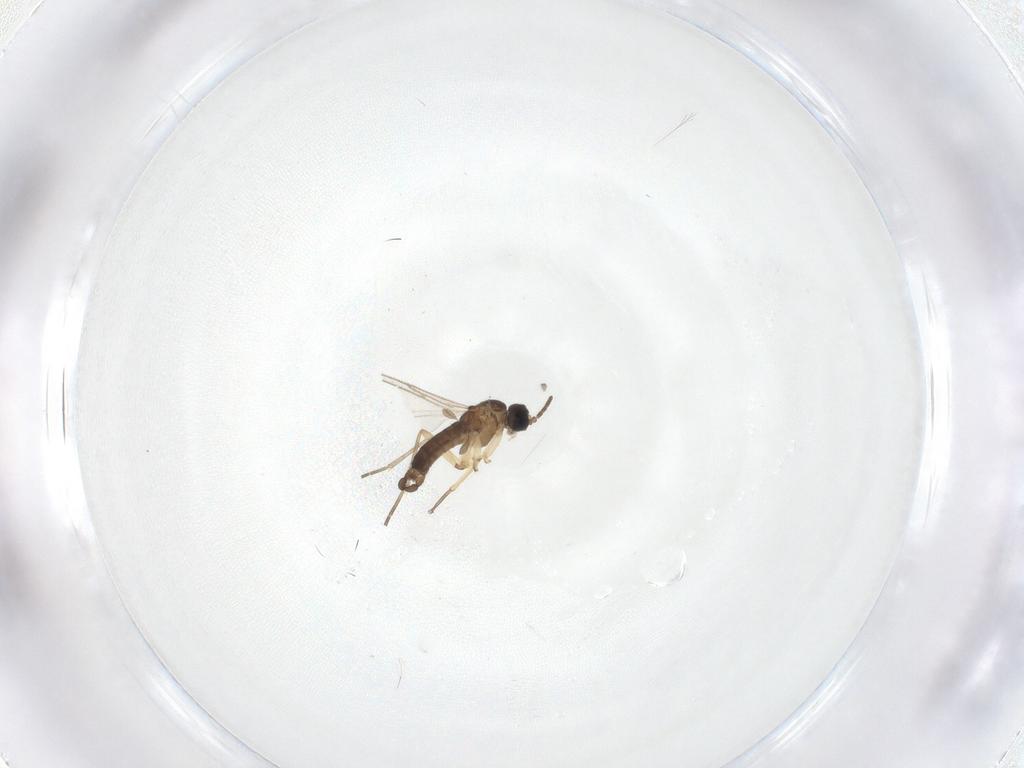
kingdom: Animalia
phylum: Arthropoda
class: Insecta
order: Diptera
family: Sciaridae
